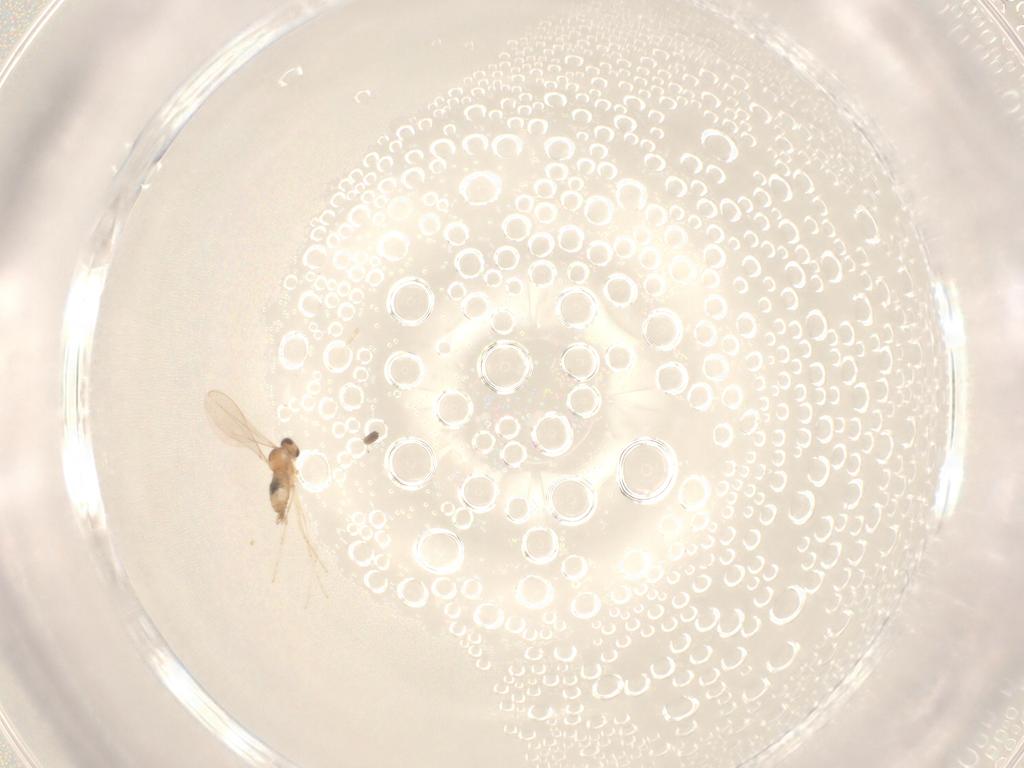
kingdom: Animalia
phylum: Arthropoda
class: Insecta
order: Diptera
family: Cecidomyiidae
